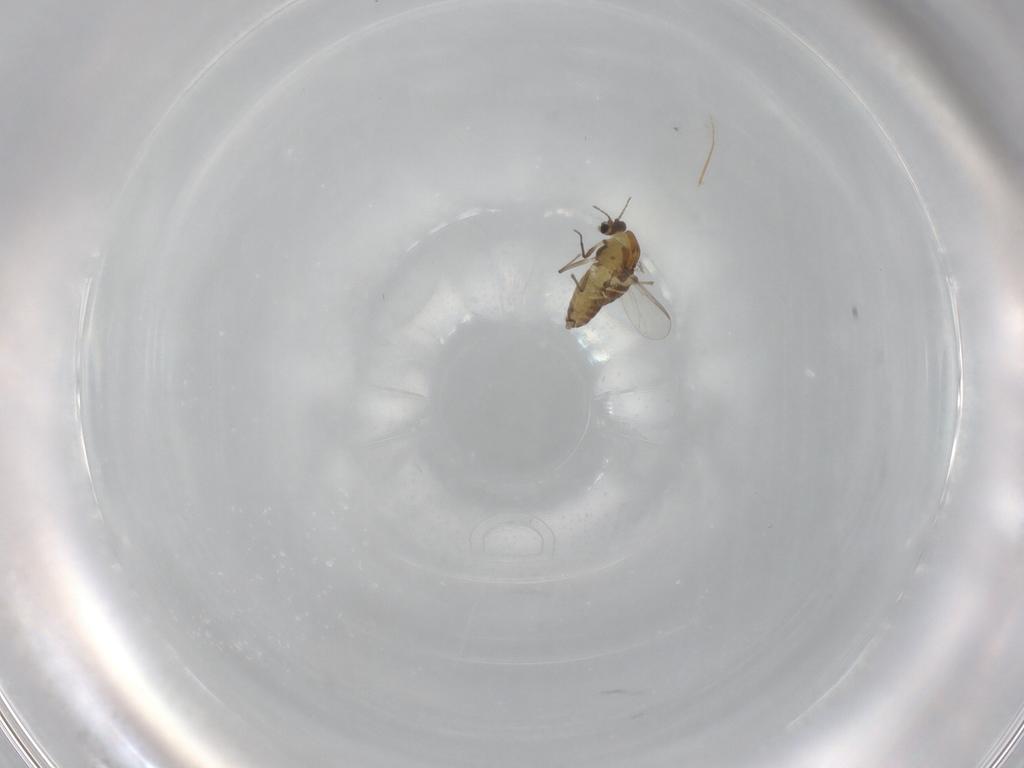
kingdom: Animalia
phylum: Arthropoda
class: Insecta
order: Diptera
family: Chironomidae
